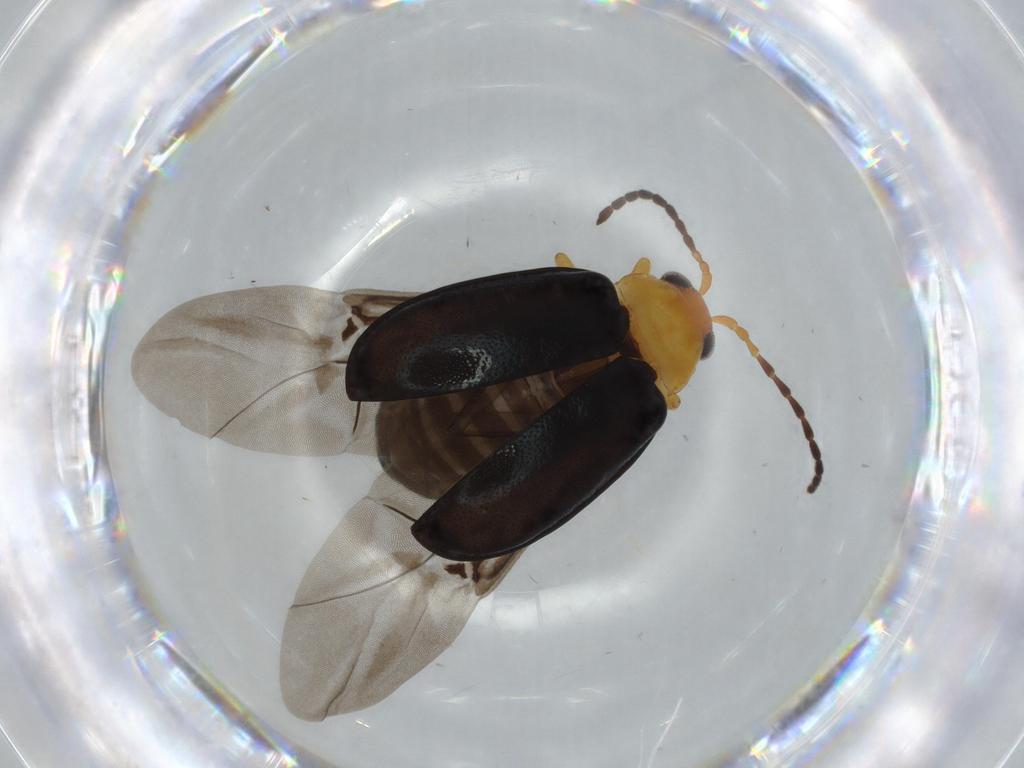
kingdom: Animalia
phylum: Arthropoda
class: Insecta
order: Coleoptera
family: Chrysomelidae
